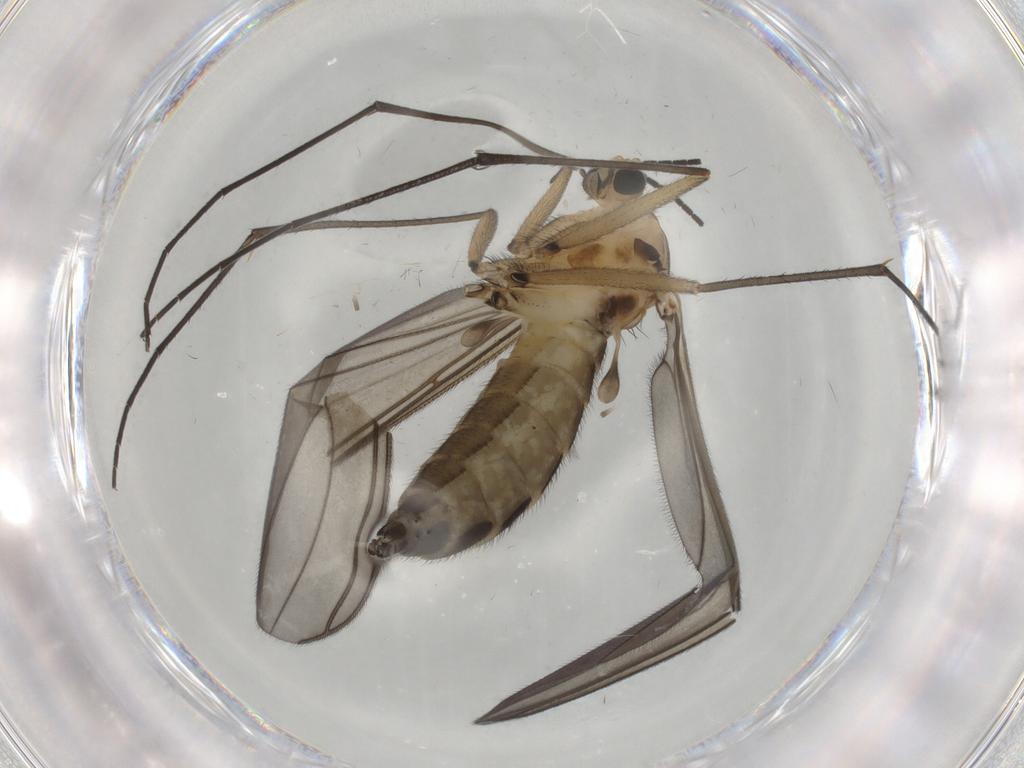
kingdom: Animalia
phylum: Arthropoda
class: Insecta
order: Diptera
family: Sciaridae
